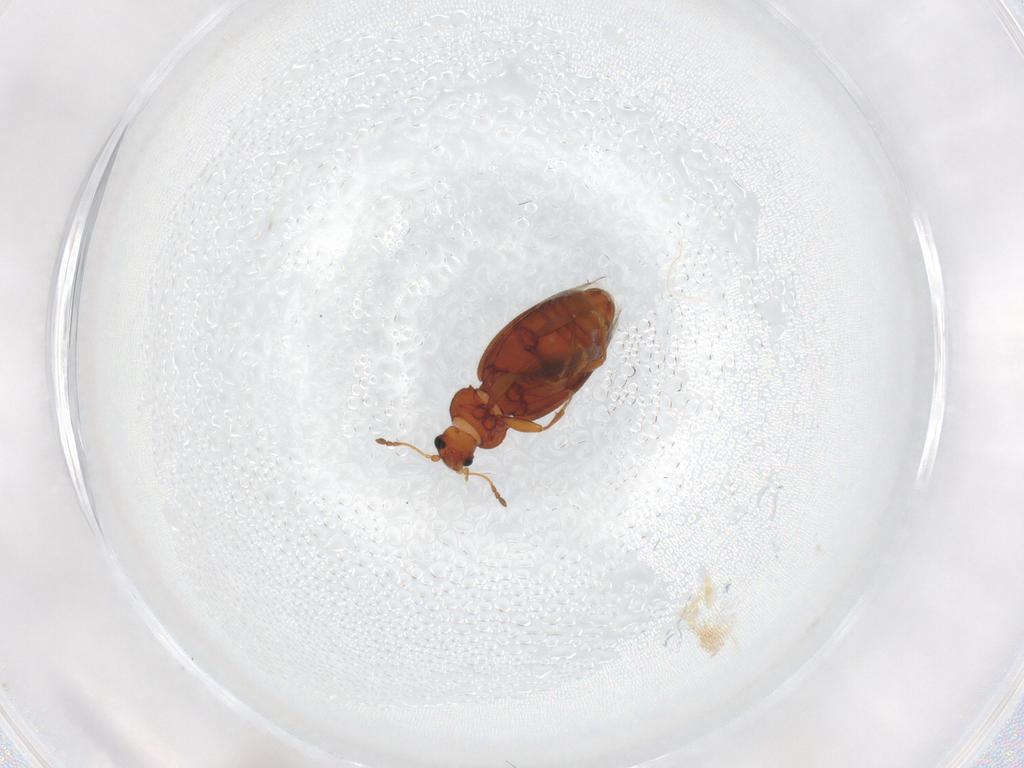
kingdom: Animalia
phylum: Arthropoda
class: Insecta
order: Coleoptera
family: Latridiidae
